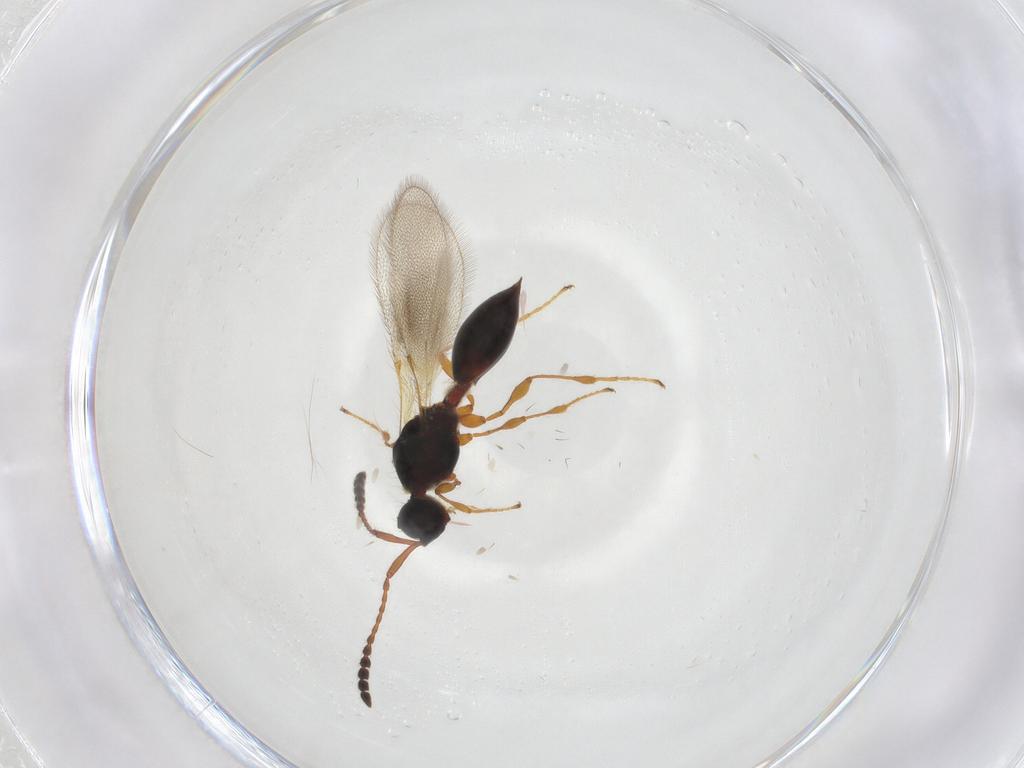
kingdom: Animalia
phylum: Arthropoda
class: Insecta
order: Hymenoptera
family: Diapriidae
